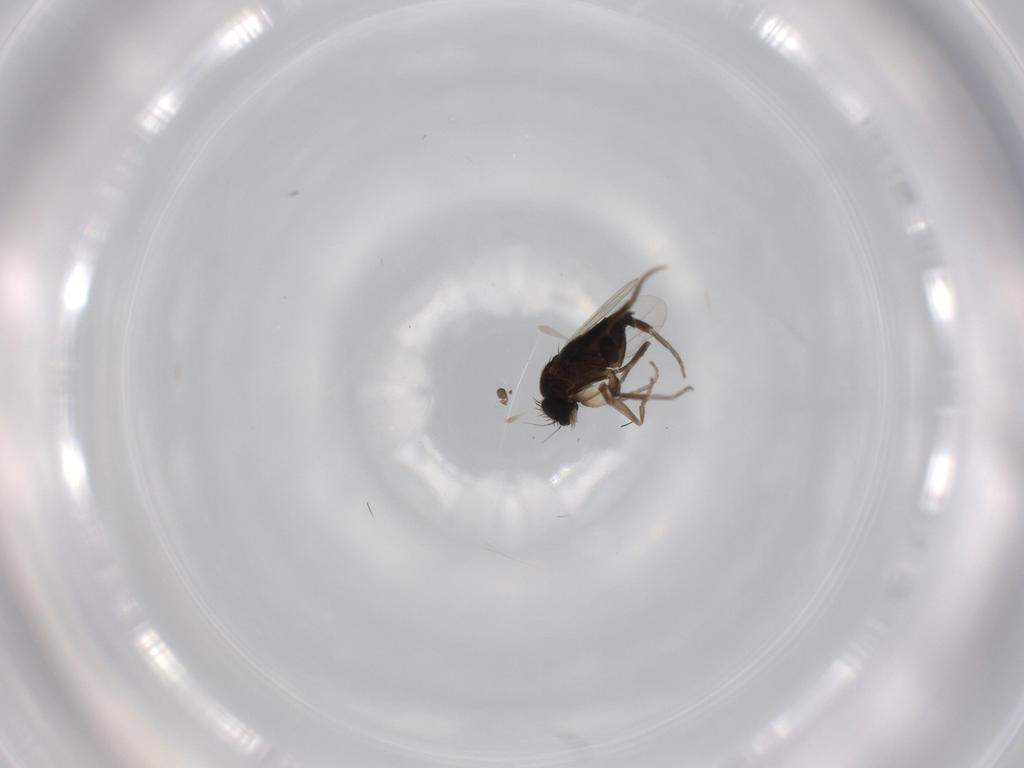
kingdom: Animalia
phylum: Arthropoda
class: Insecta
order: Diptera
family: Phoridae
